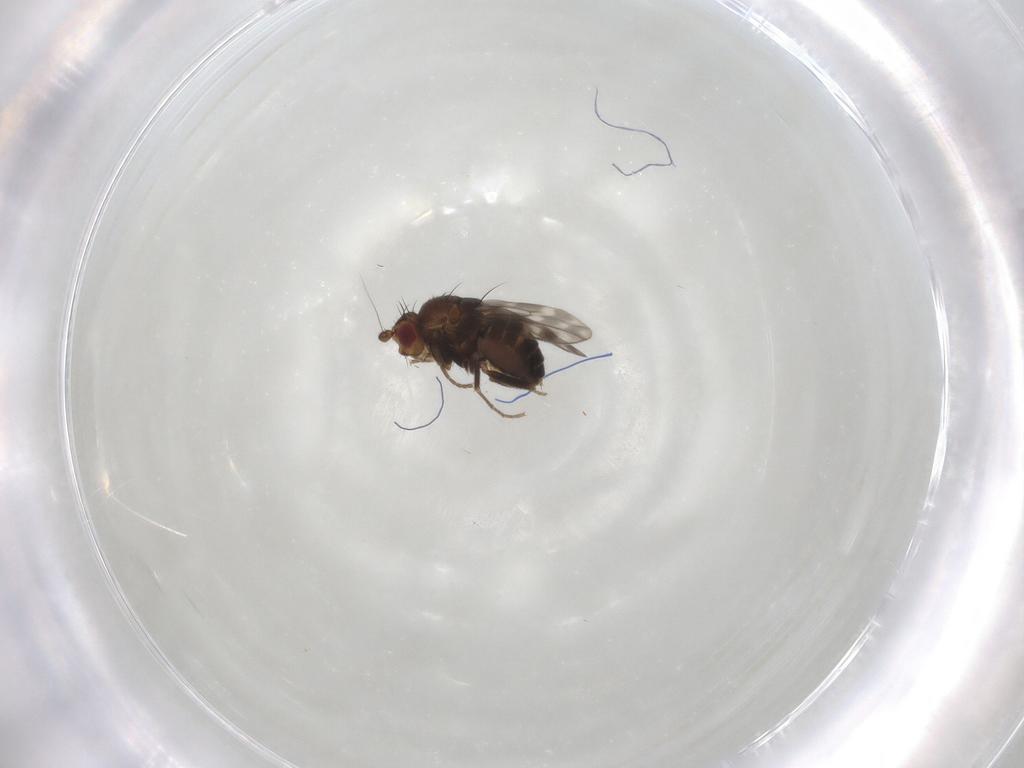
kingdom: Animalia
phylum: Arthropoda
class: Insecta
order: Diptera
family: Sphaeroceridae
